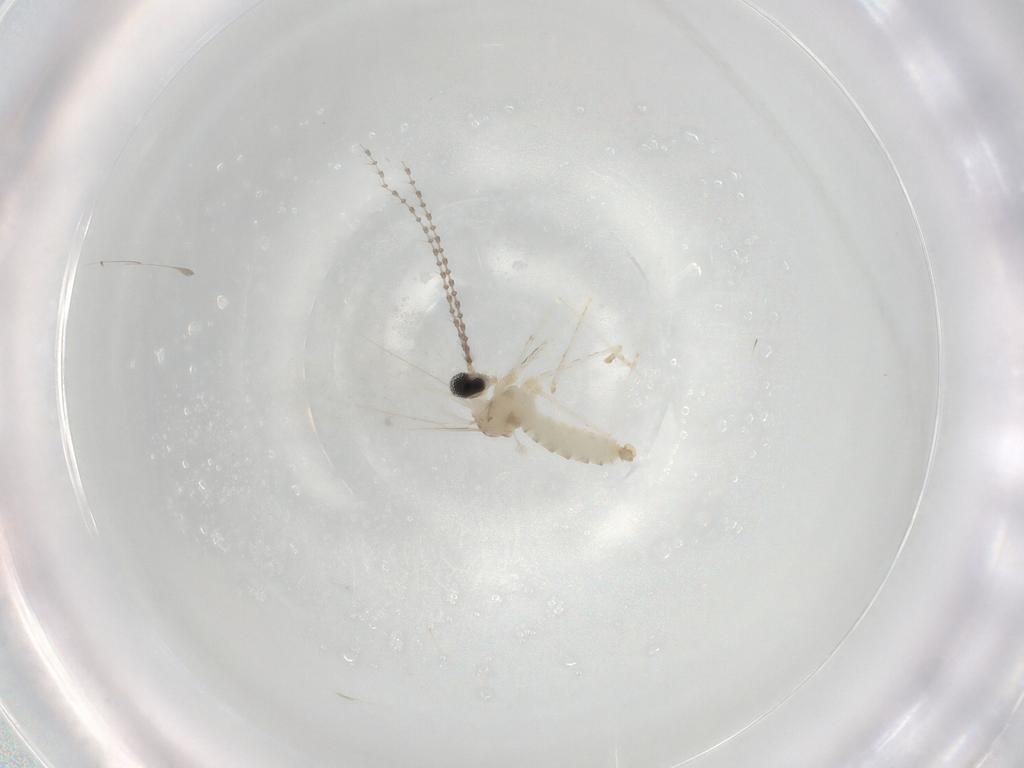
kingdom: Animalia
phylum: Arthropoda
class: Insecta
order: Diptera
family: Cecidomyiidae
